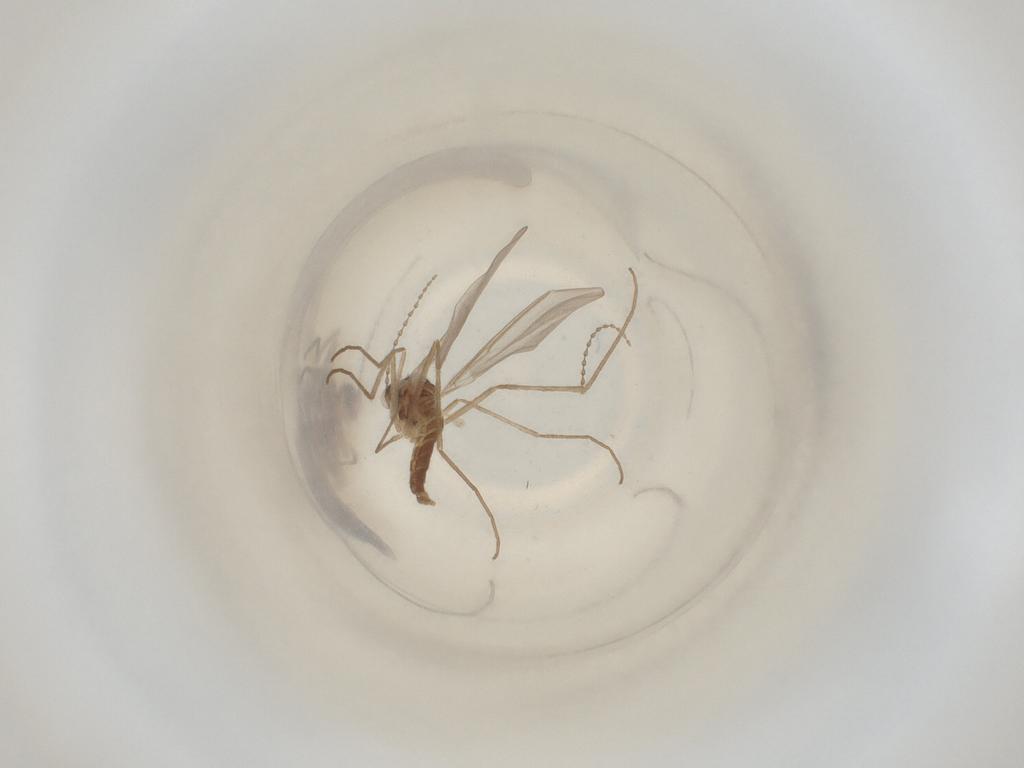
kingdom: Animalia
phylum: Arthropoda
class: Insecta
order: Diptera
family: Cecidomyiidae
